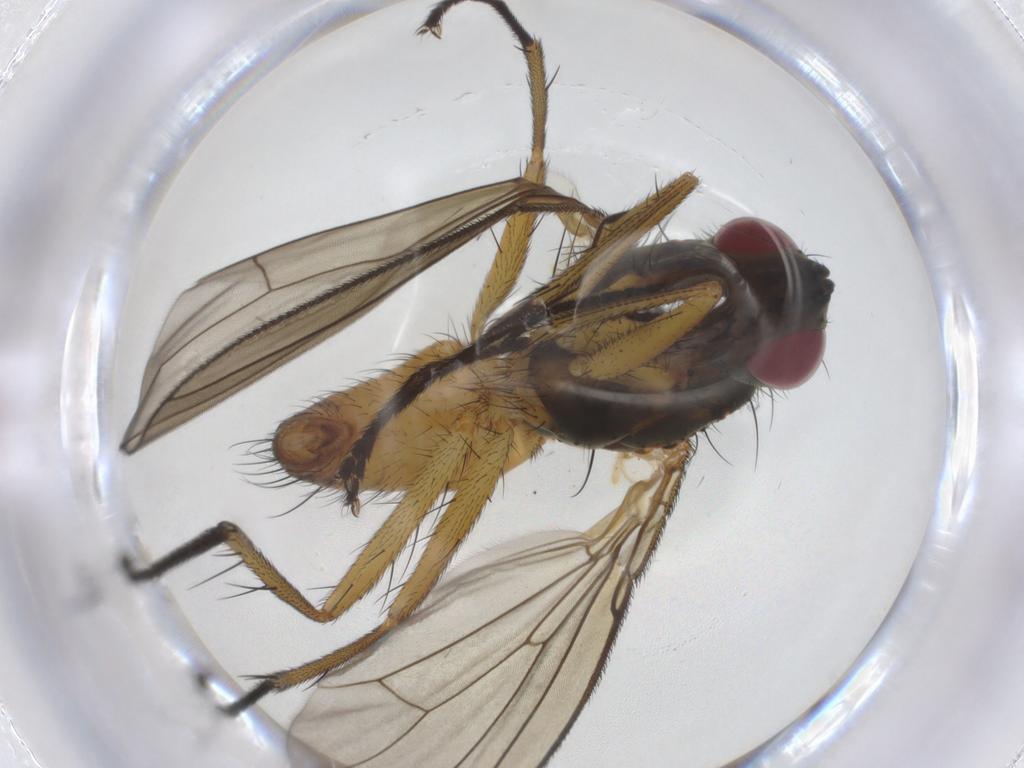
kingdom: Animalia
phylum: Arthropoda
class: Insecta
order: Diptera
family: Muscidae
